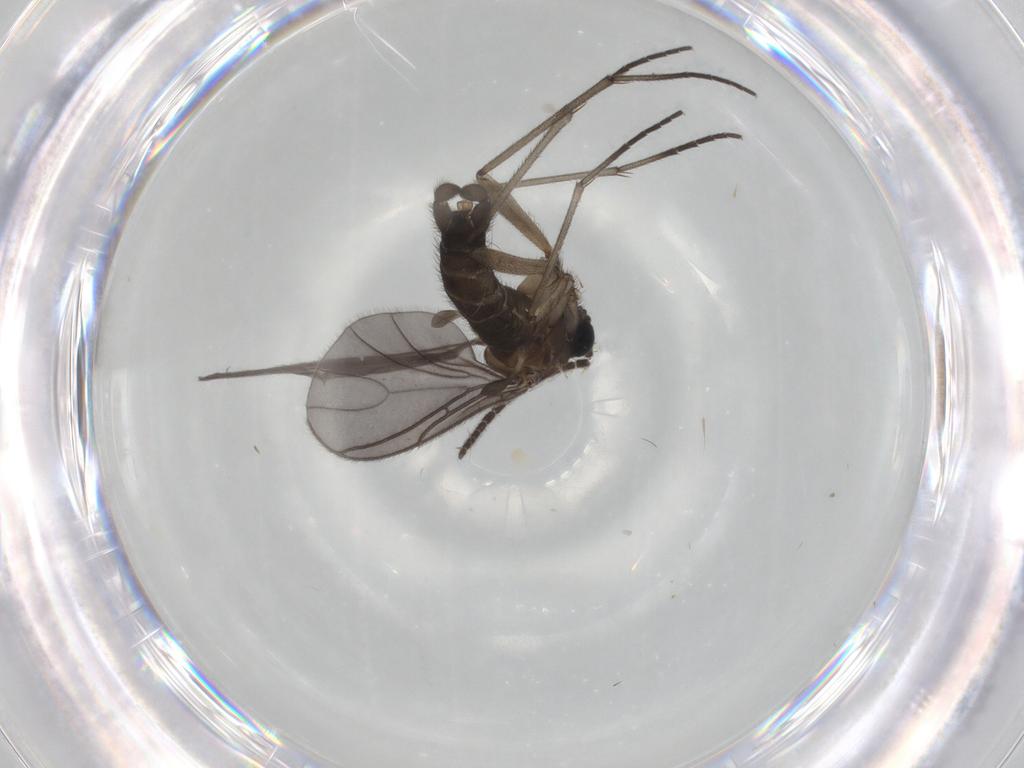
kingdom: Animalia
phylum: Arthropoda
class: Insecta
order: Diptera
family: Sciaridae
